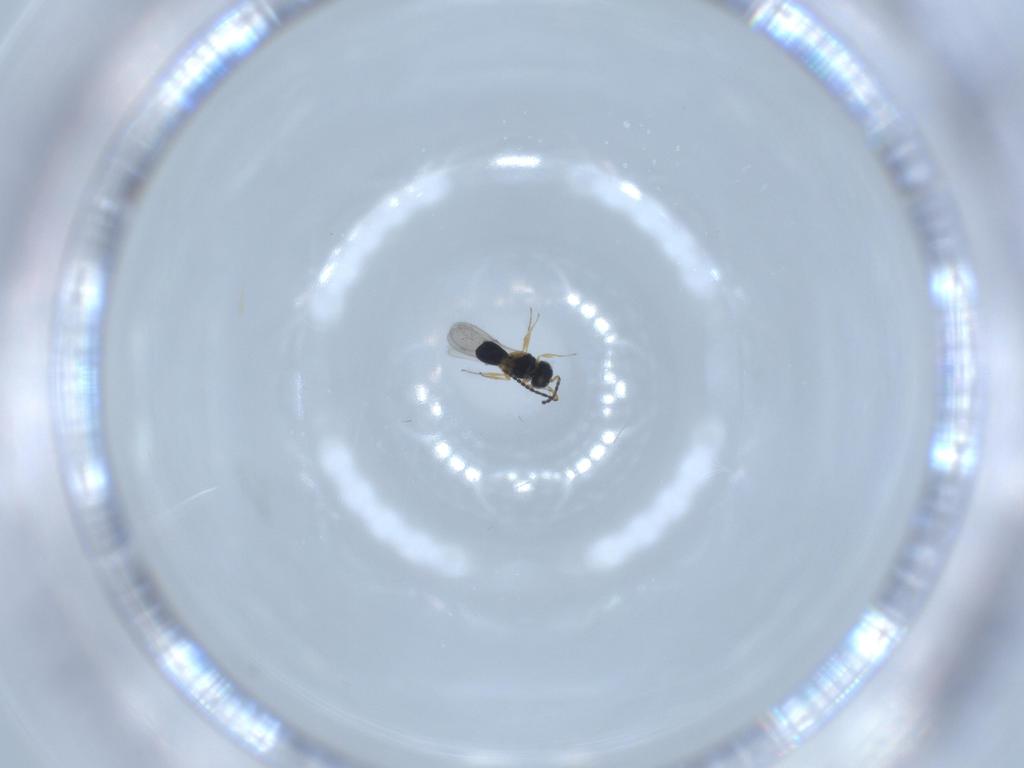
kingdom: Animalia
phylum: Arthropoda
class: Insecta
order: Hymenoptera
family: Scelionidae
